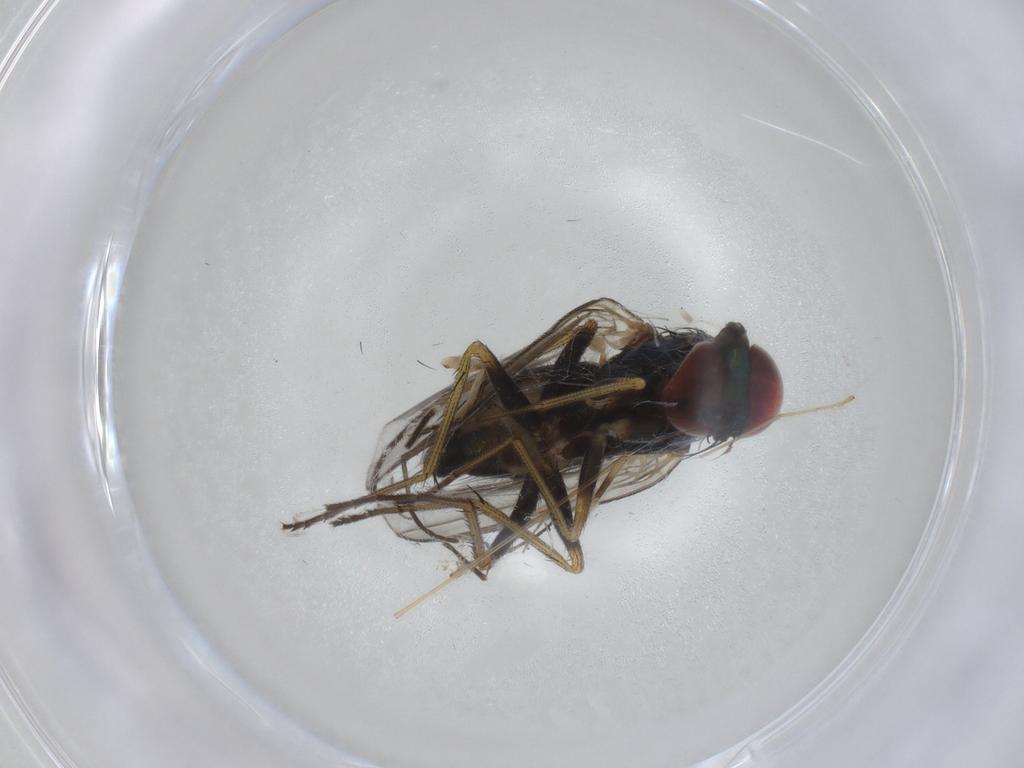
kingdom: Animalia
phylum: Arthropoda
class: Insecta
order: Diptera
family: Dolichopodidae
